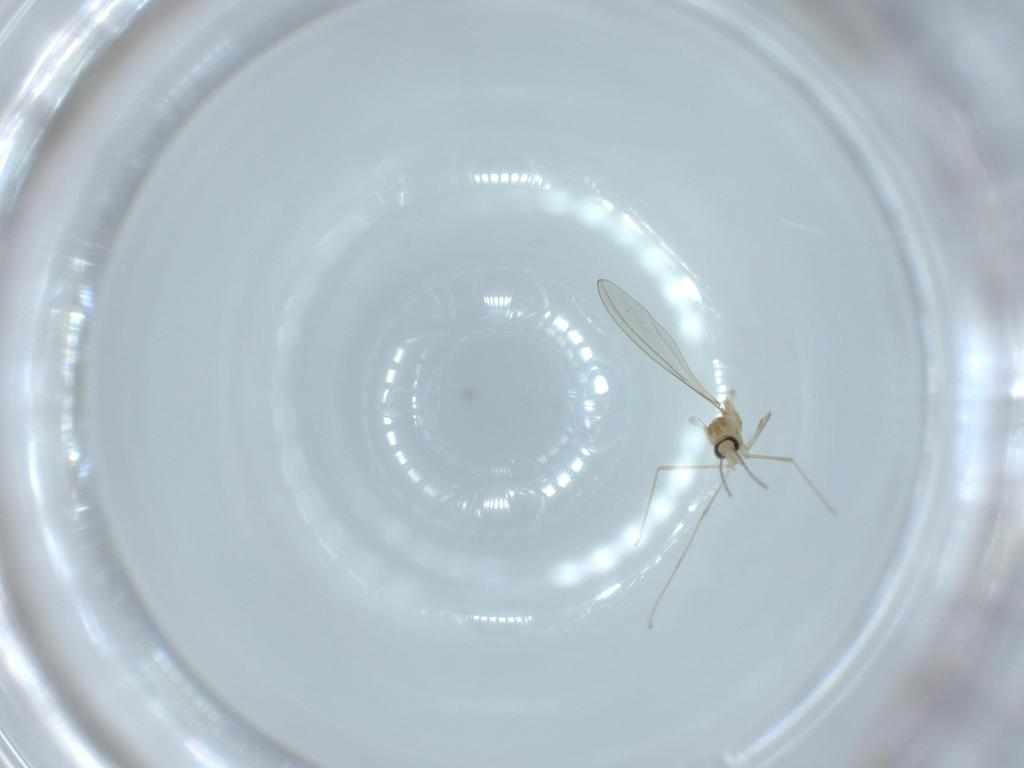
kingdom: Animalia
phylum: Arthropoda
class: Insecta
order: Diptera
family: Cecidomyiidae
